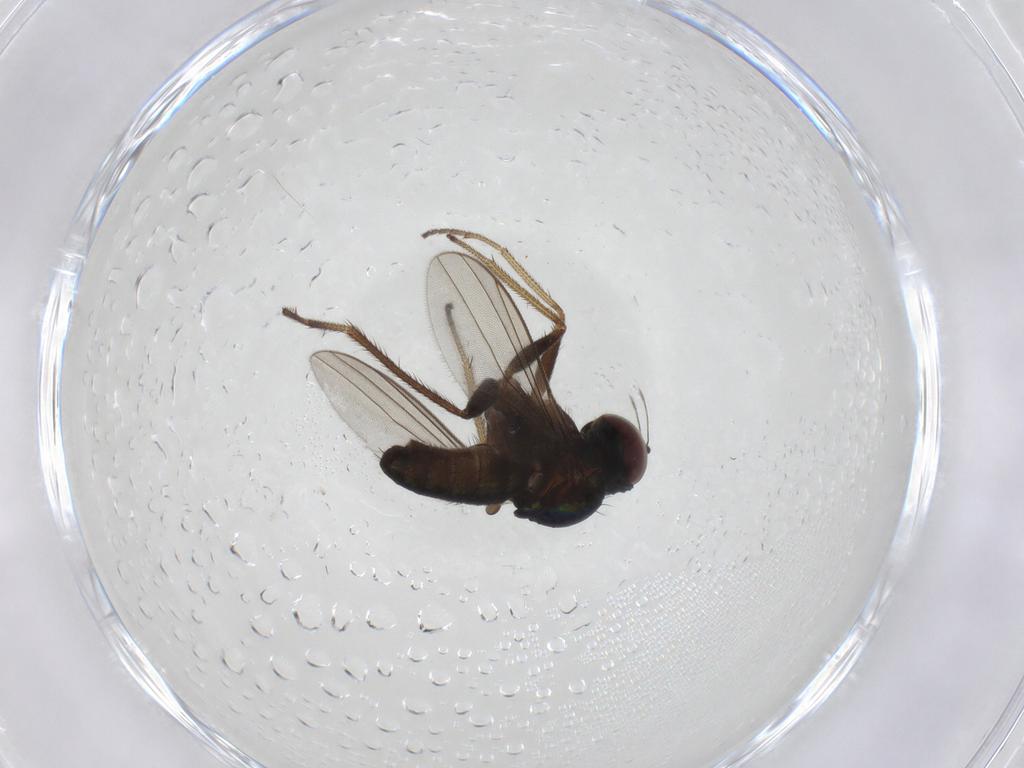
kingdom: Animalia
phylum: Arthropoda
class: Insecta
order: Diptera
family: Dolichopodidae
